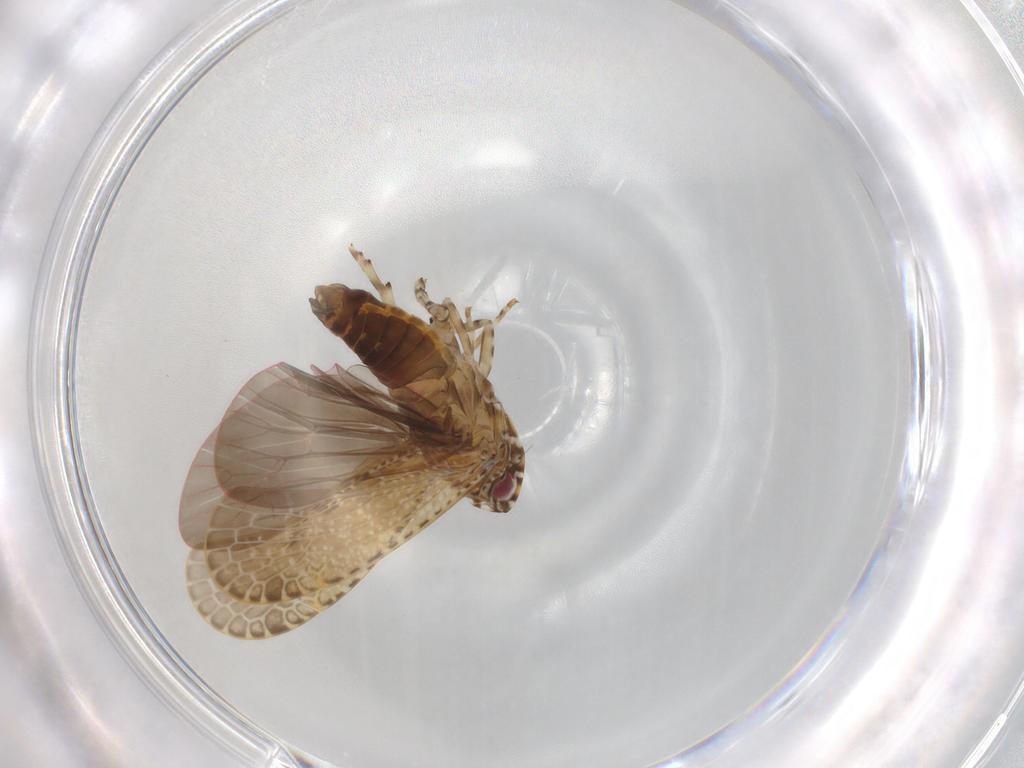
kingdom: Animalia
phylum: Arthropoda
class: Insecta
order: Hemiptera
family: Achilidae
